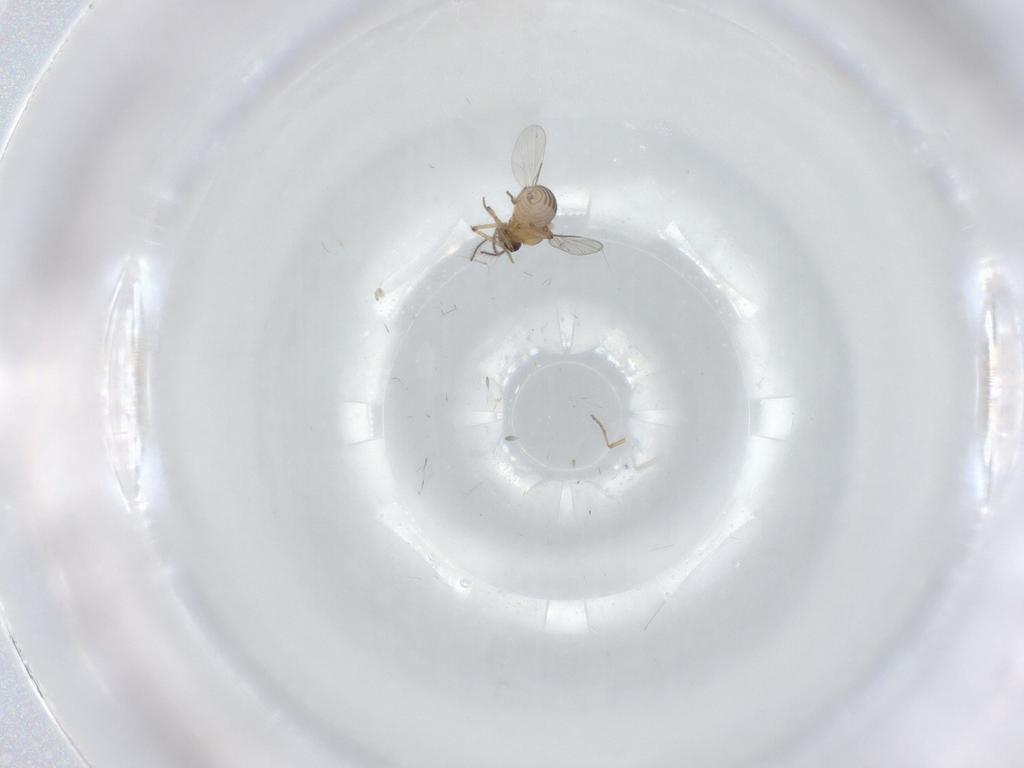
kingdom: Animalia
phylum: Arthropoda
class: Insecta
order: Diptera
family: Ceratopogonidae
